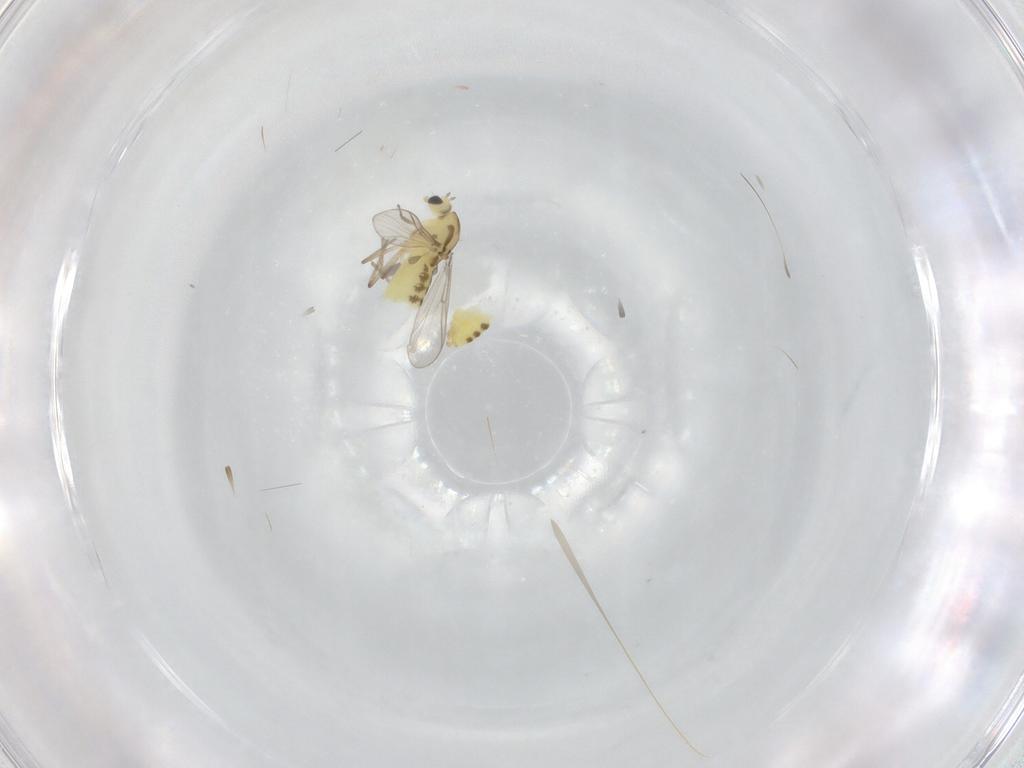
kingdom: Animalia
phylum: Arthropoda
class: Insecta
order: Diptera
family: Chironomidae
